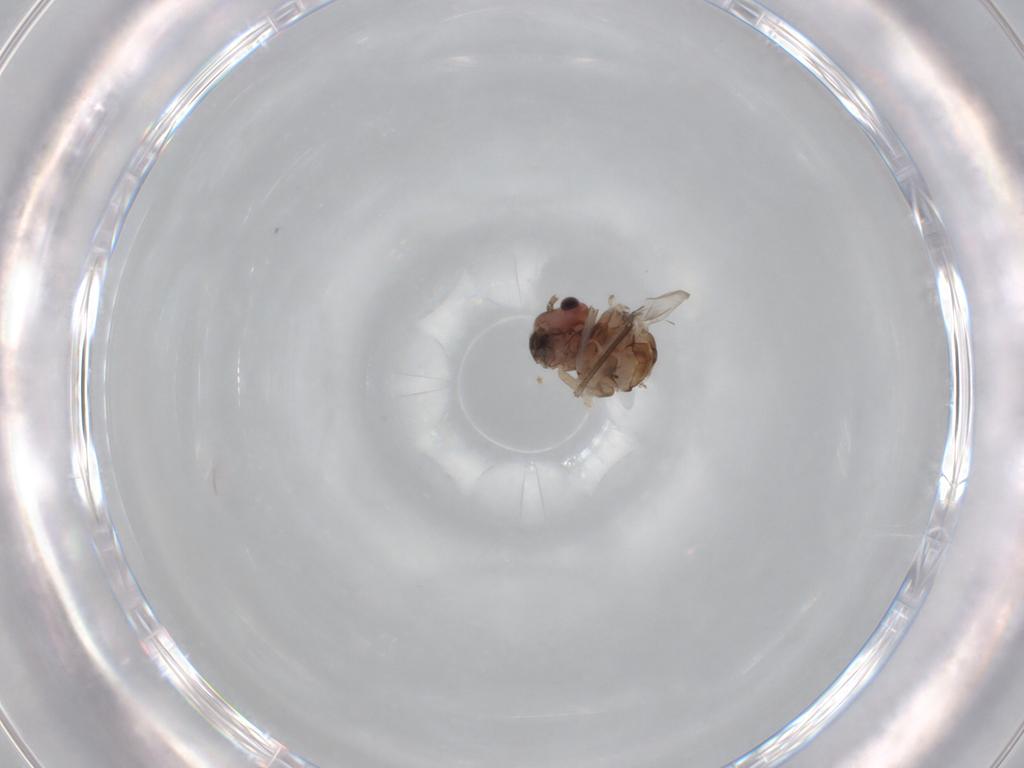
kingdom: Animalia
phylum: Arthropoda
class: Insecta
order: Psocodea
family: Peripsocidae
